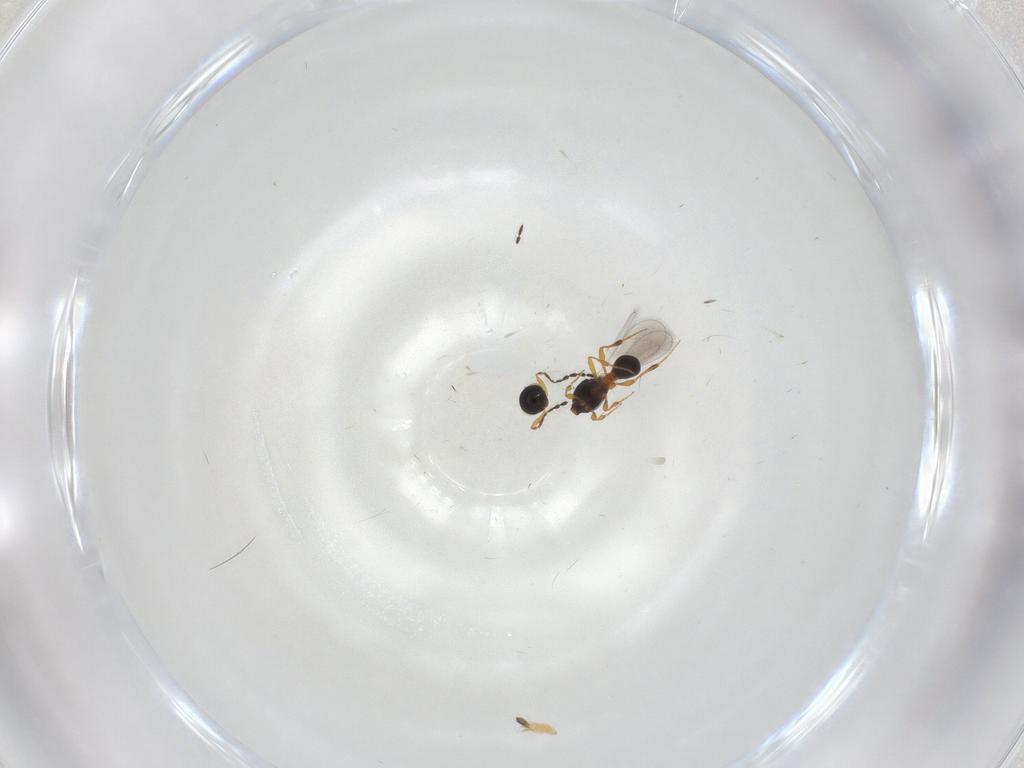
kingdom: Animalia
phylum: Arthropoda
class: Insecta
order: Hymenoptera
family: Platygastridae
